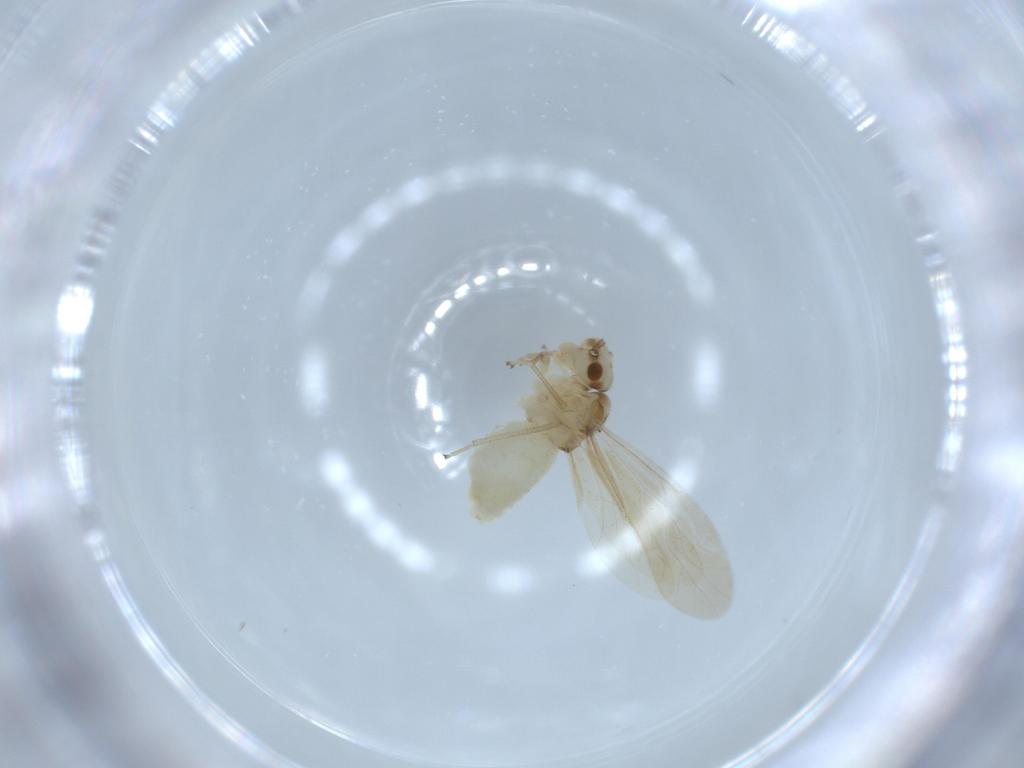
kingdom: Animalia
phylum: Arthropoda
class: Insecta
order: Psocodea
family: Caeciliusidae
